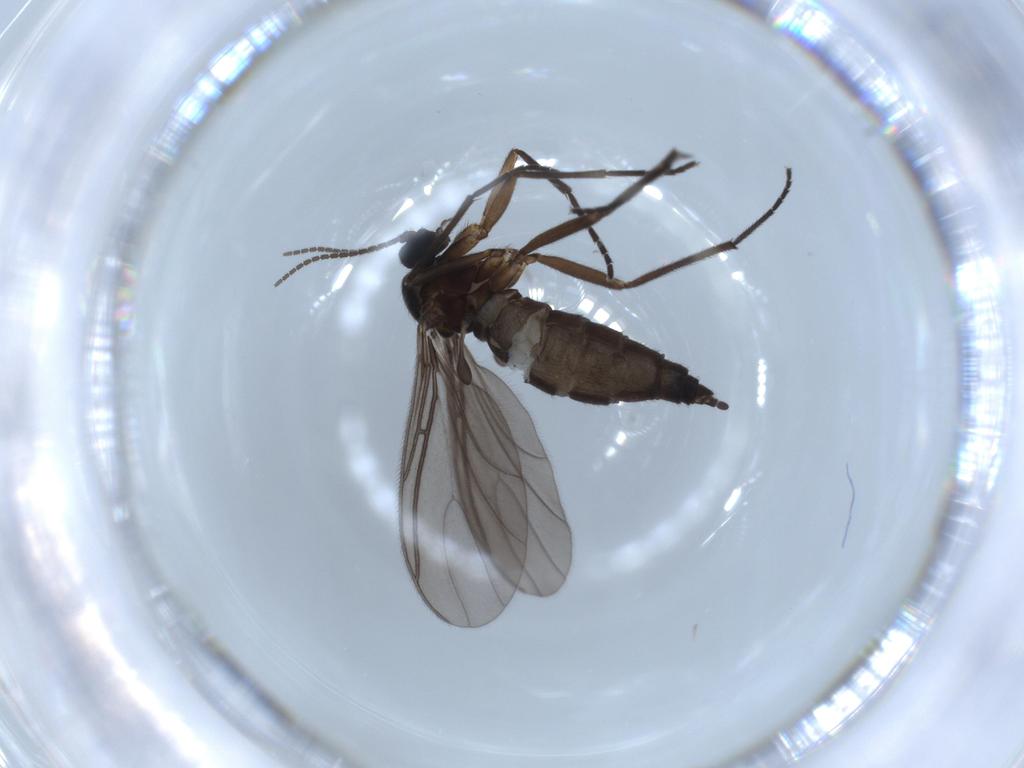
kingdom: Animalia
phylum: Arthropoda
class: Insecta
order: Diptera
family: Sciaridae
